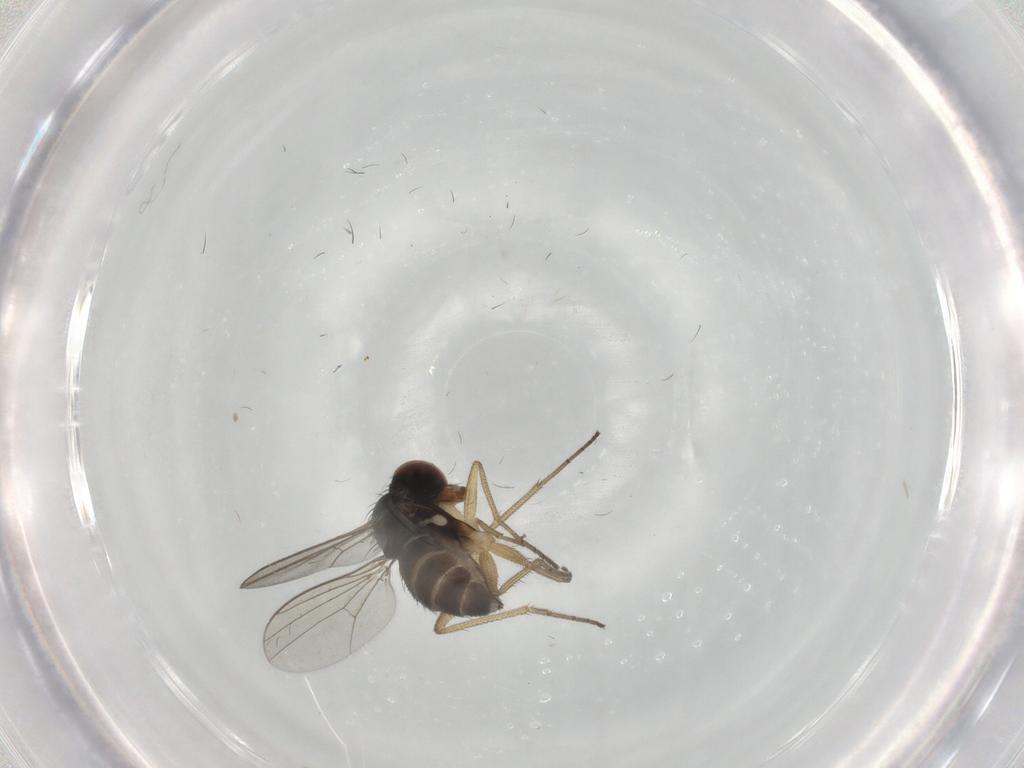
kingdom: Animalia
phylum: Arthropoda
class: Insecta
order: Diptera
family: Dolichopodidae
